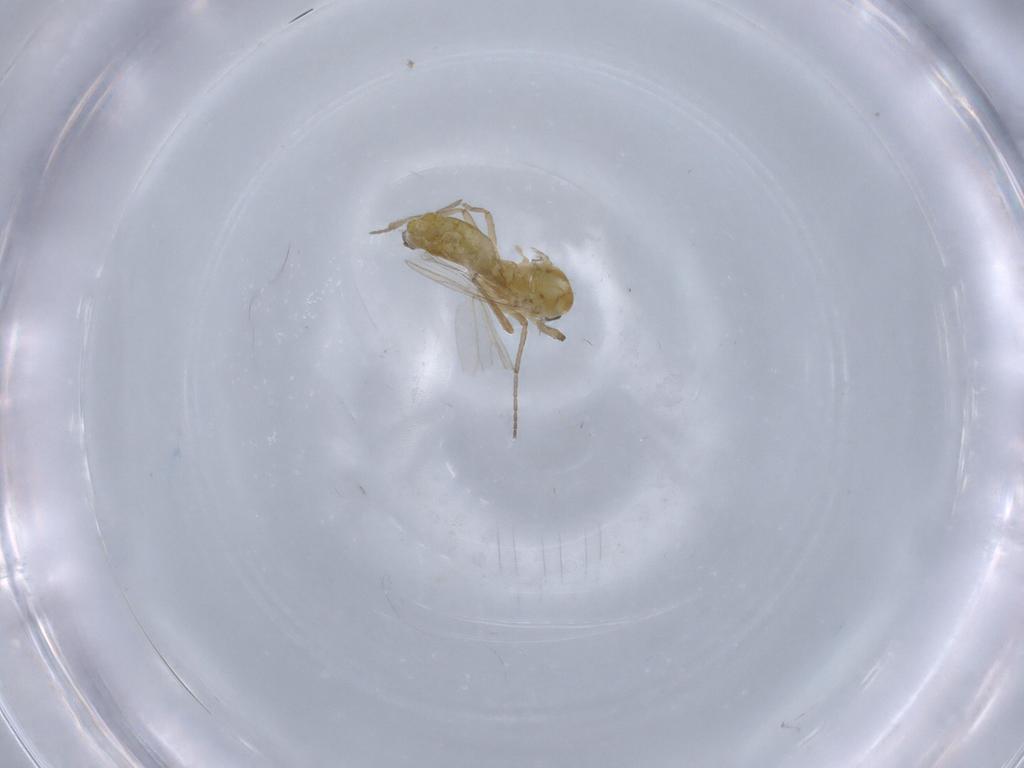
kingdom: Animalia
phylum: Arthropoda
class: Insecta
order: Diptera
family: Chironomidae
